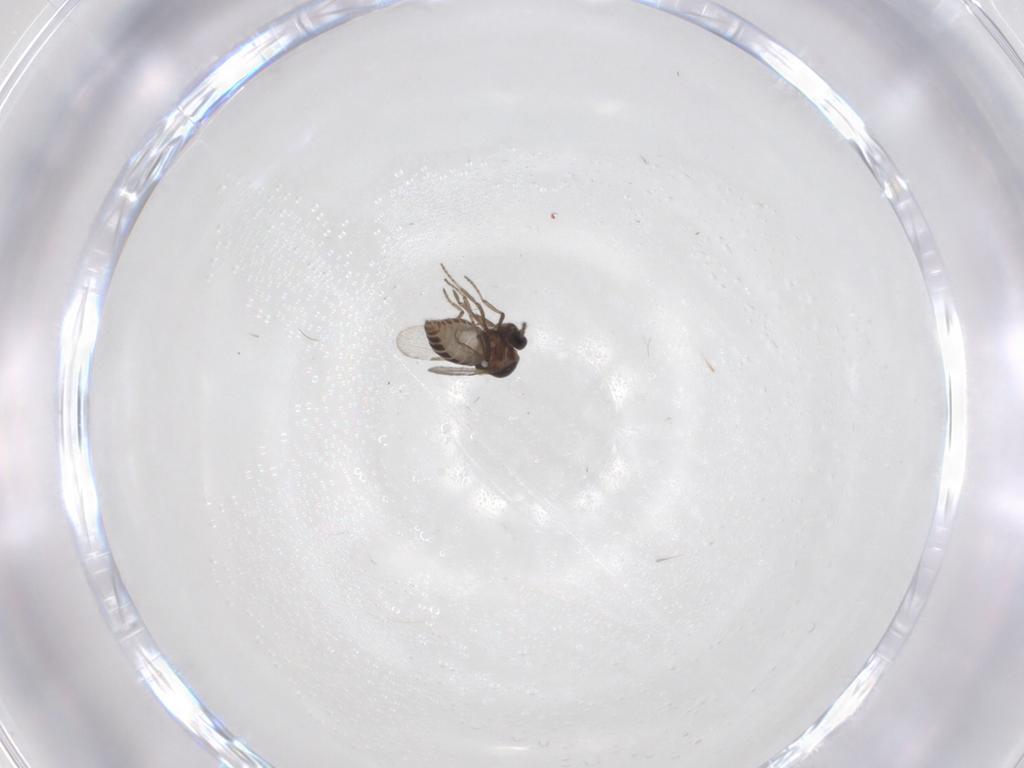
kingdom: Animalia
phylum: Arthropoda
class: Insecta
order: Diptera
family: Ceratopogonidae
